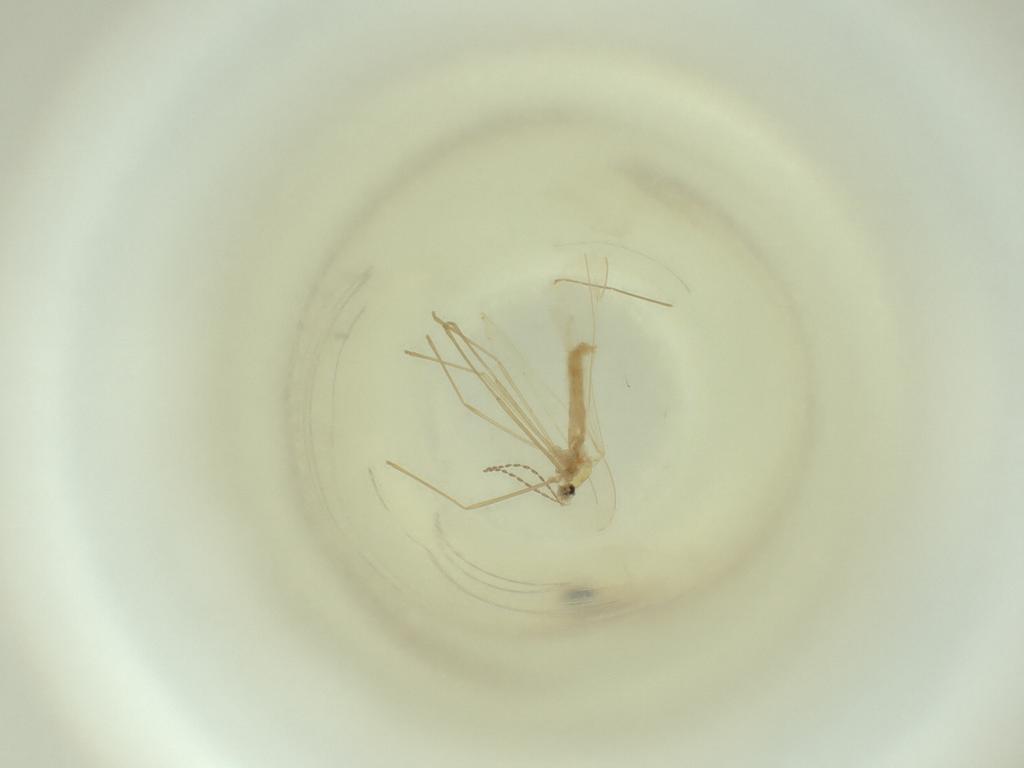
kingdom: Animalia
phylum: Arthropoda
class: Insecta
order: Diptera
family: Cecidomyiidae
